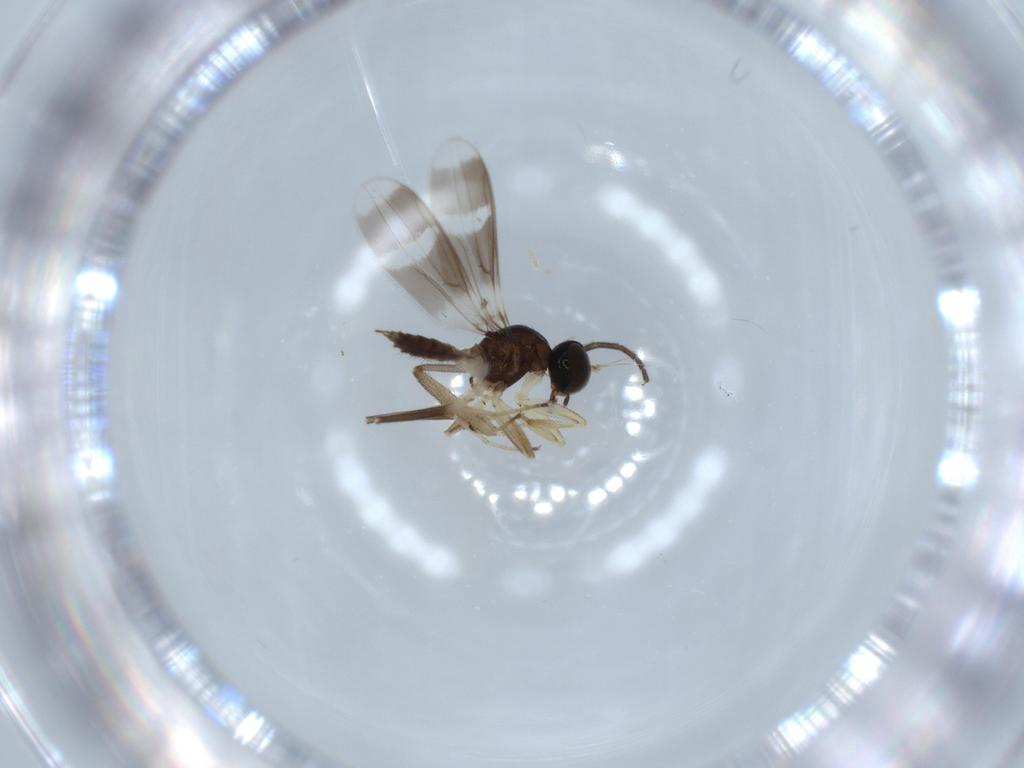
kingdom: Animalia
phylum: Arthropoda
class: Insecta
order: Diptera
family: Hybotidae
